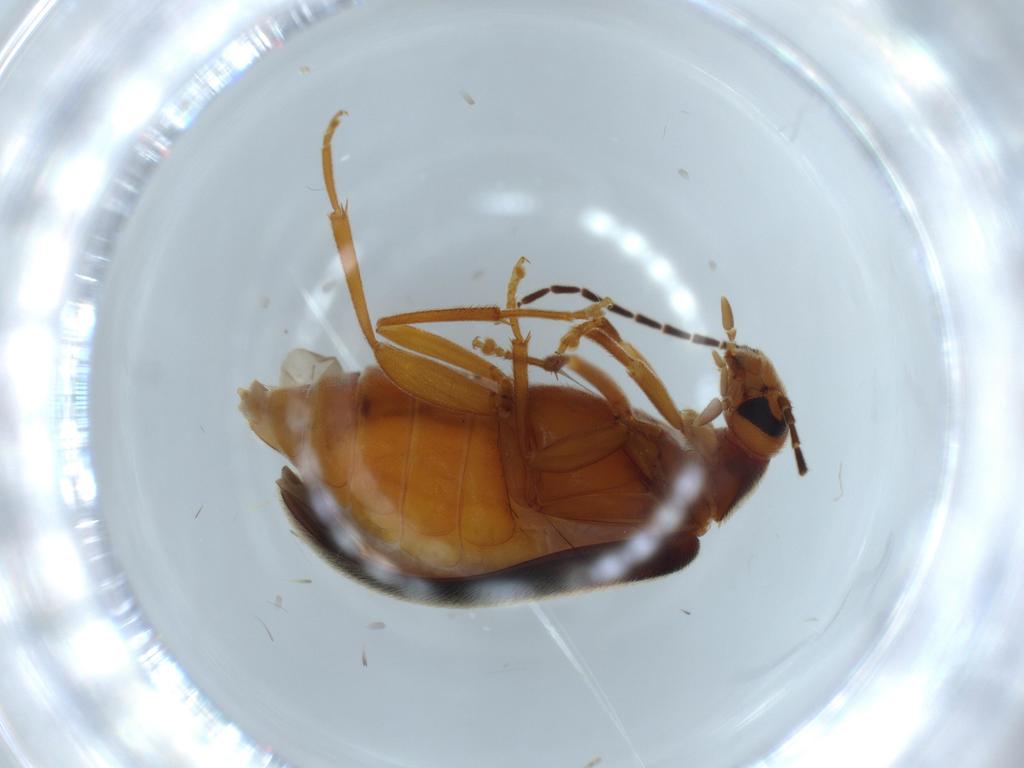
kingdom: Animalia
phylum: Arthropoda
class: Insecta
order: Coleoptera
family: Chrysomelidae
